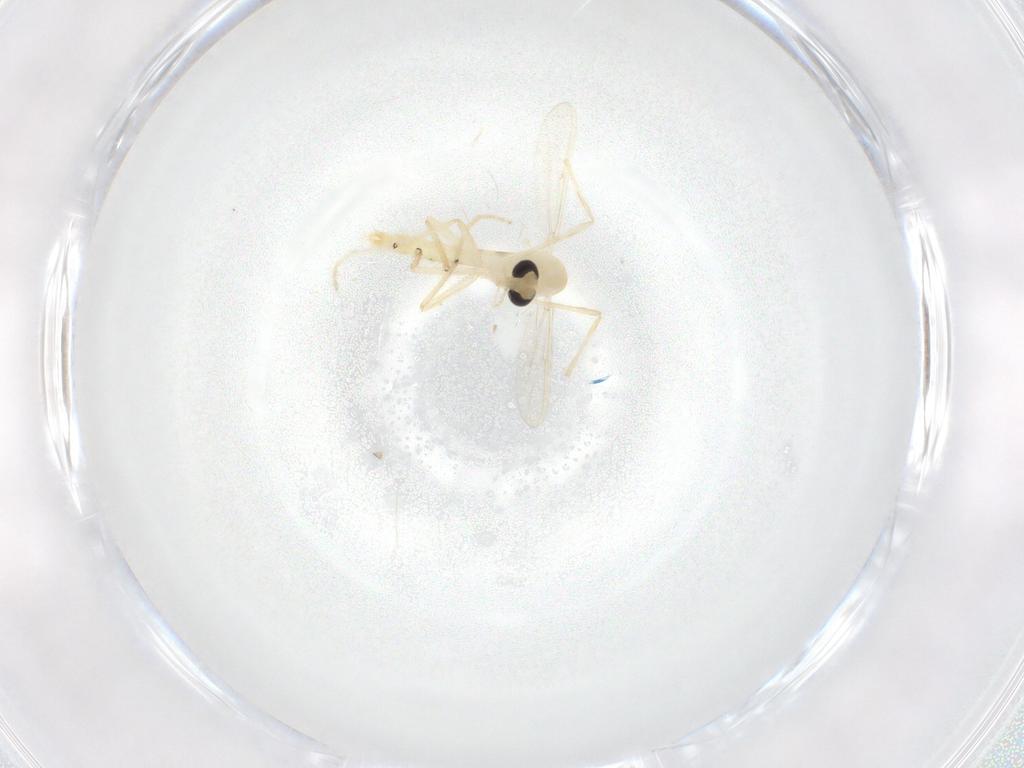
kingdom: Animalia
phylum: Arthropoda
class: Insecta
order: Diptera
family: Chironomidae
